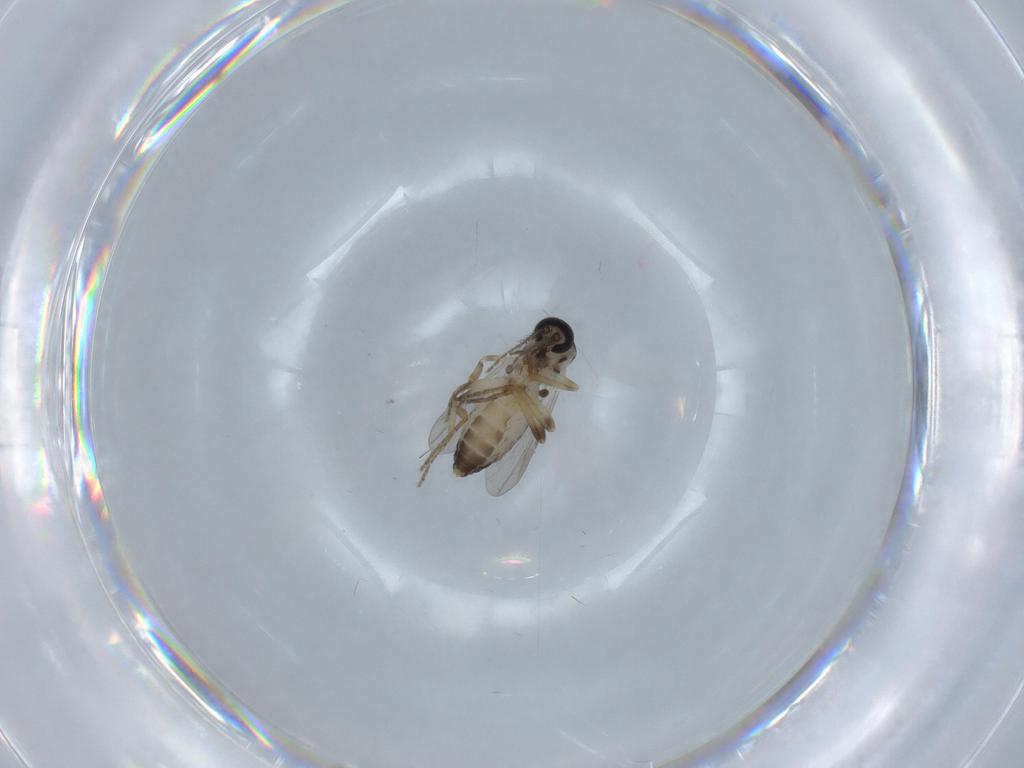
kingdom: Animalia
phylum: Arthropoda
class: Insecta
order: Diptera
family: Ceratopogonidae
